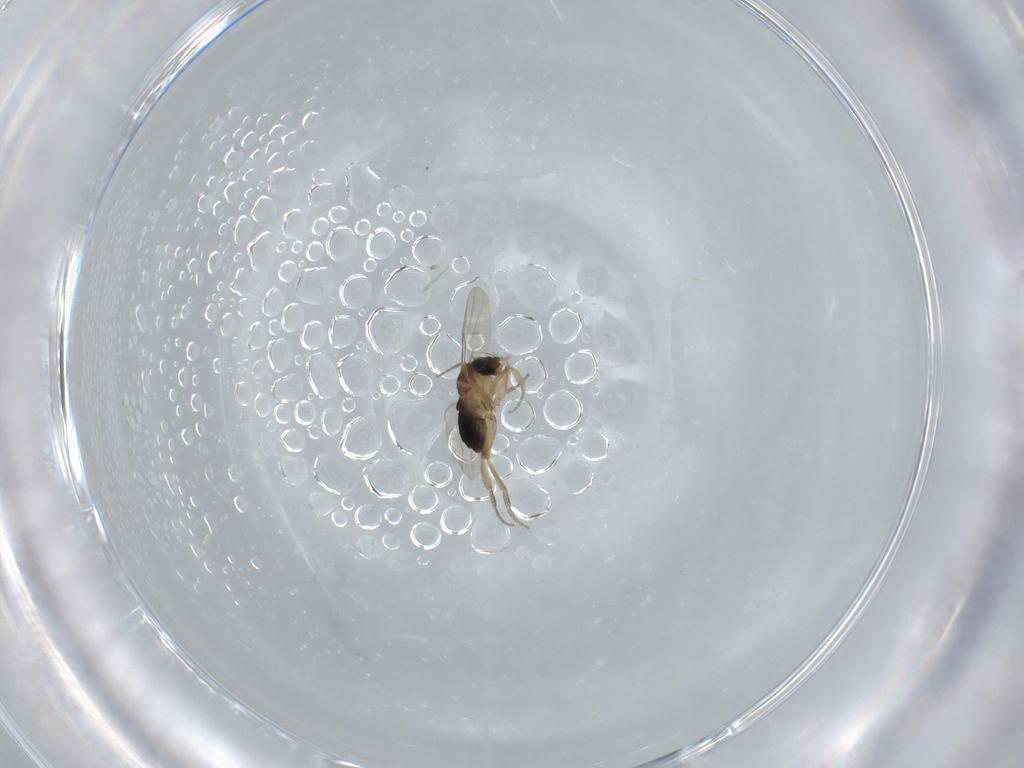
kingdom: Animalia
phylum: Arthropoda
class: Insecta
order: Diptera
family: Phoridae
